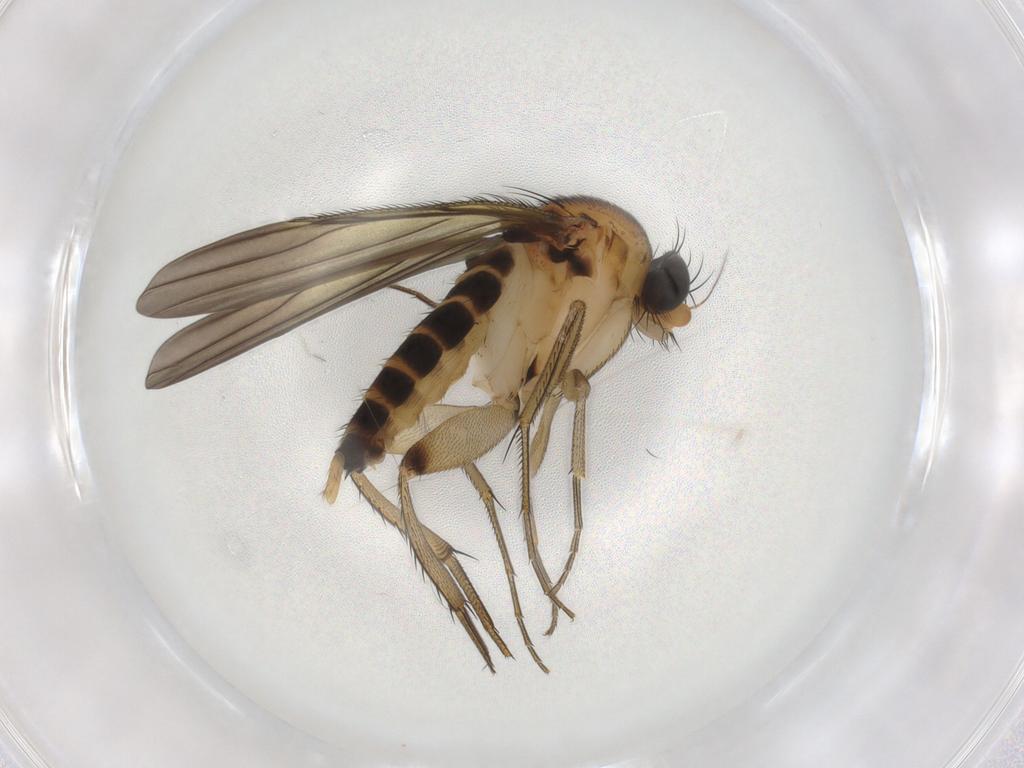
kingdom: Animalia
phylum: Arthropoda
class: Insecta
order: Diptera
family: Phoridae
